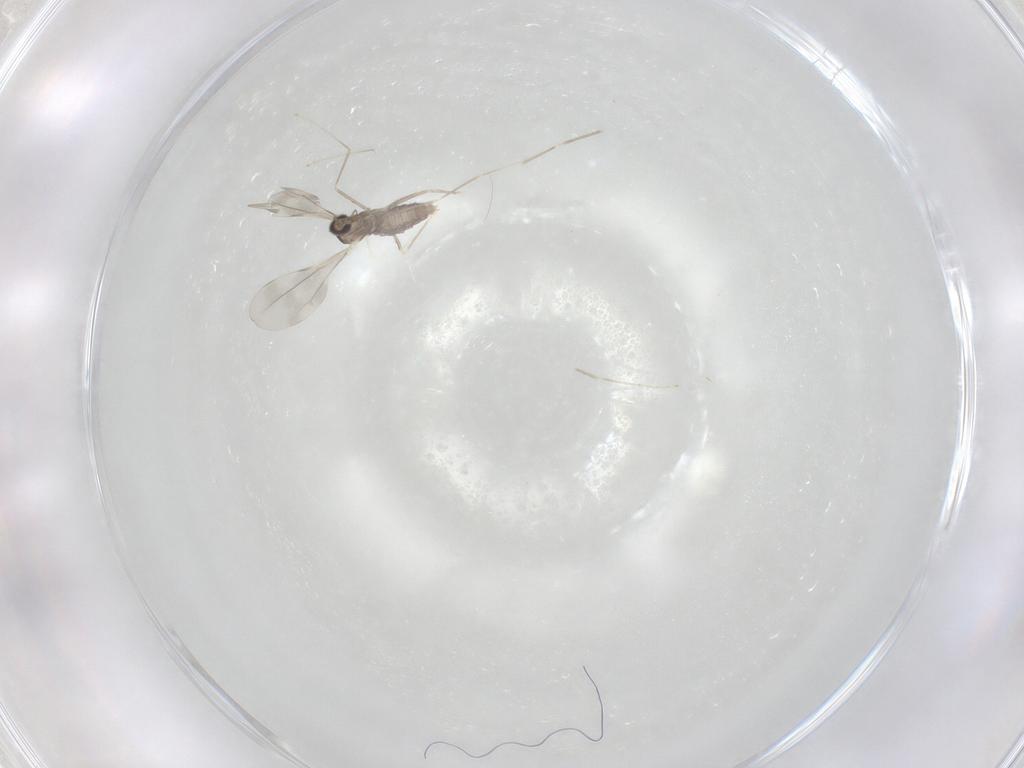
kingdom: Animalia
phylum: Arthropoda
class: Insecta
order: Diptera
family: Cecidomyiidae
